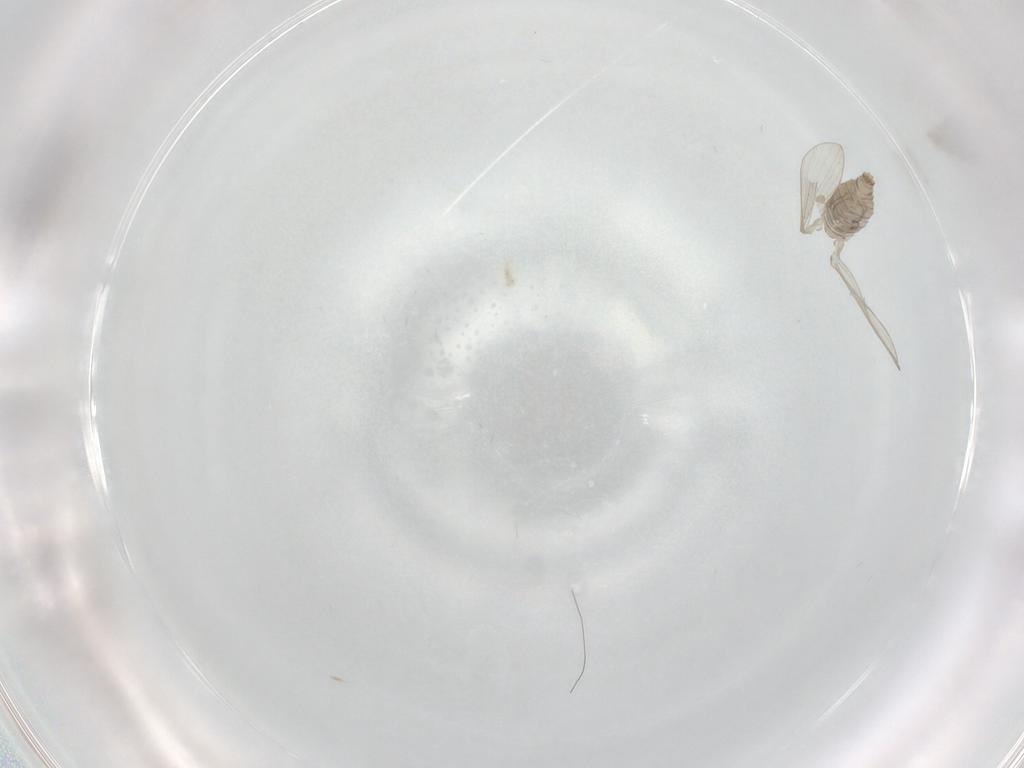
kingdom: Animalia
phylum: Arthropoda
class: Insecta
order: Diptera
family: Psychodidae
